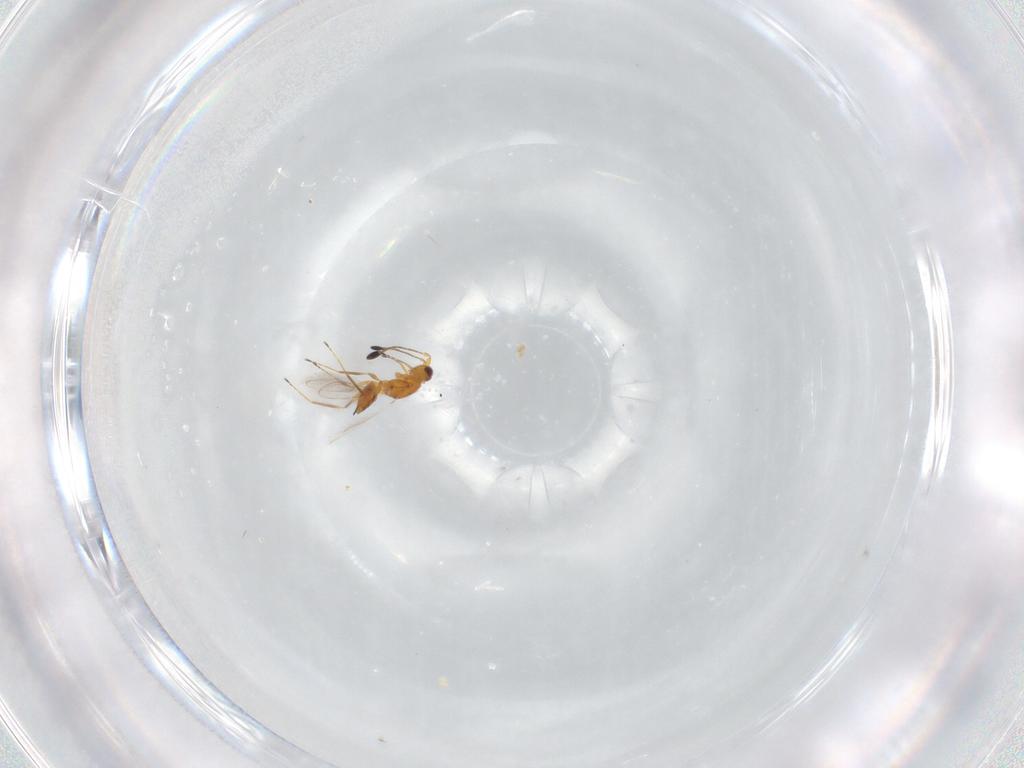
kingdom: Animalia
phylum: Arthropoda
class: Insecta
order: Hymenoptera
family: Mymaridae
